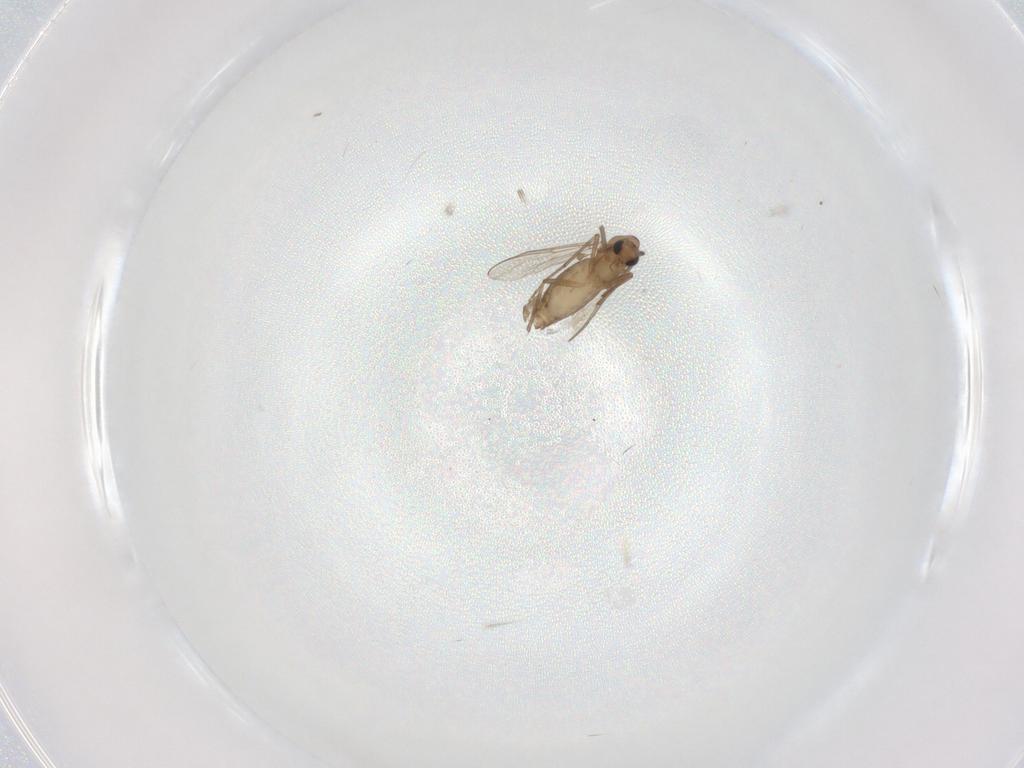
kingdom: Animalia
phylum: Arthropoda
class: Insecta
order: Diptera
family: Chironomidae
